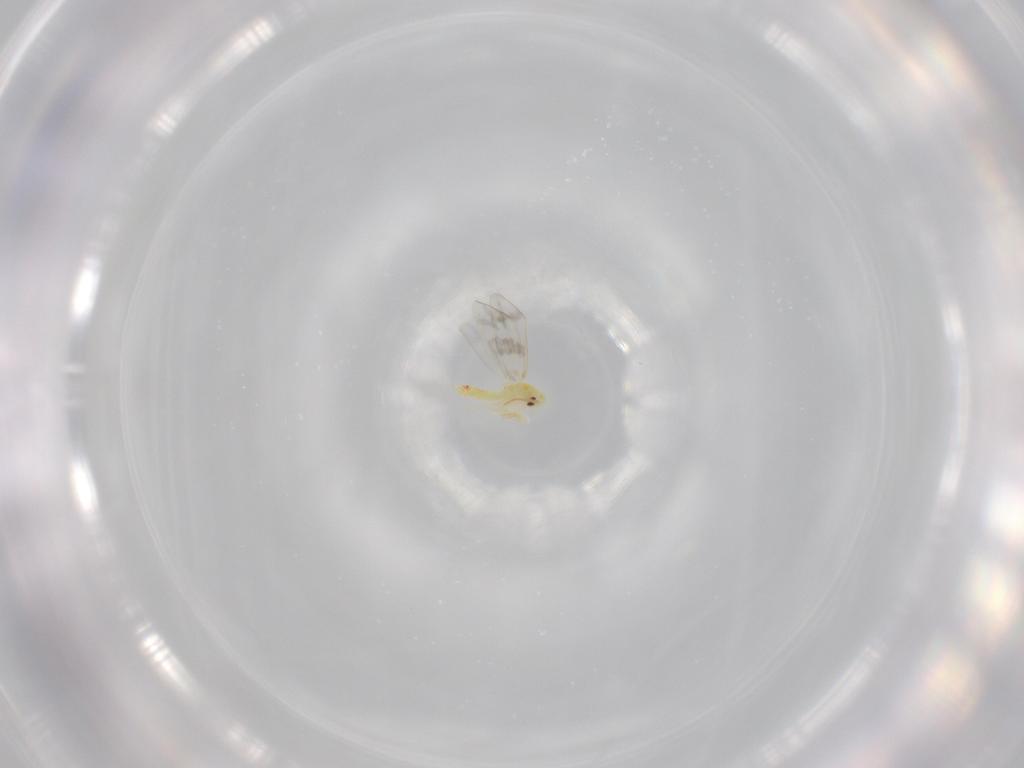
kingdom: Animalia
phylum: Arthropoda
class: Insecta
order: Hemiptera
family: Aleyrodidae
